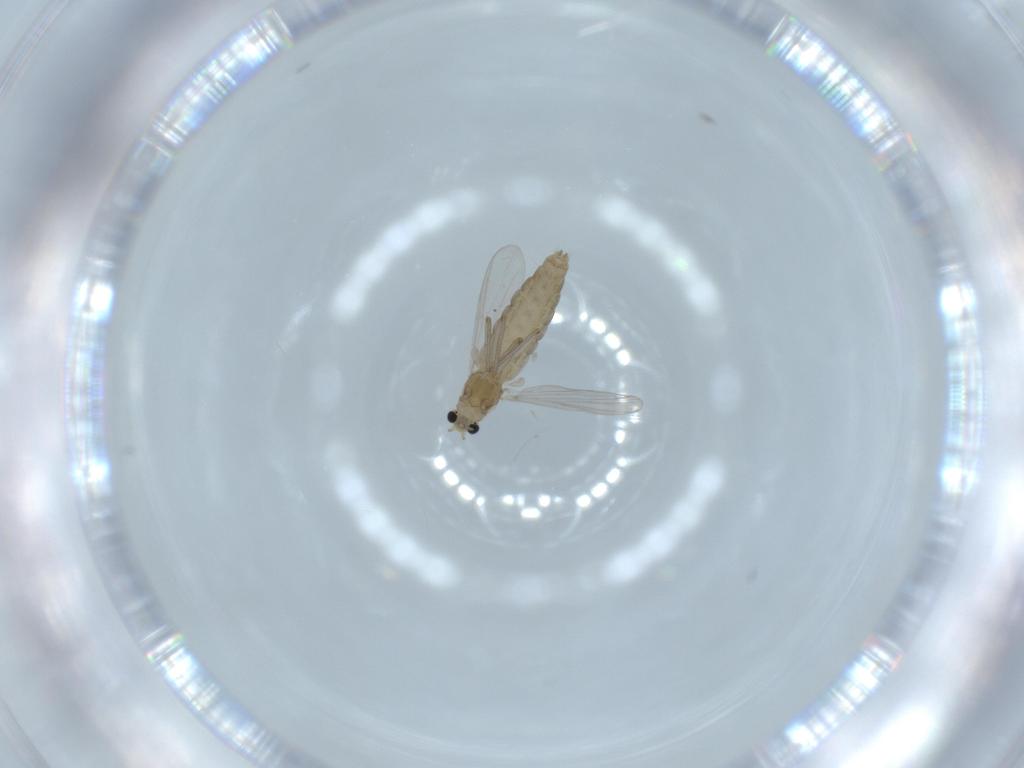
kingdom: Animalia
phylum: Arthropoda
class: Insecta
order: Diptera
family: Chironomidae
